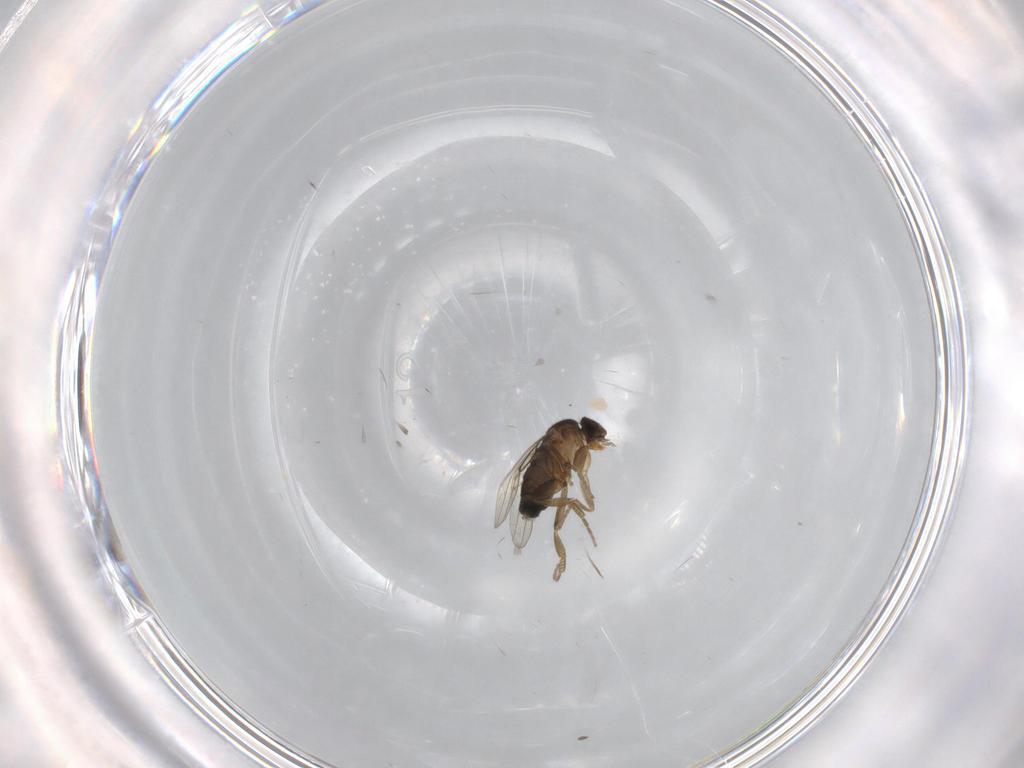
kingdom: Animalia
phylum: Arthropoda
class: Insecta
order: Diptera
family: Phoridae
